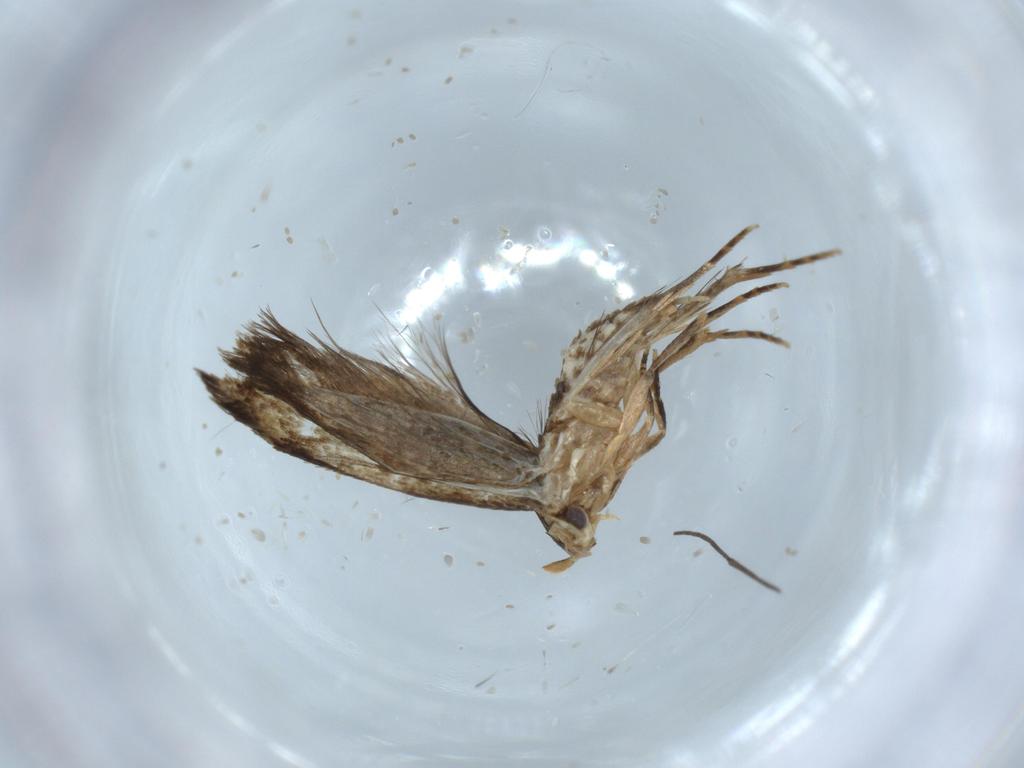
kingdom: Animalia
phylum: Arthropoda
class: Insecta
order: Lepidoptera
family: Tineidae
